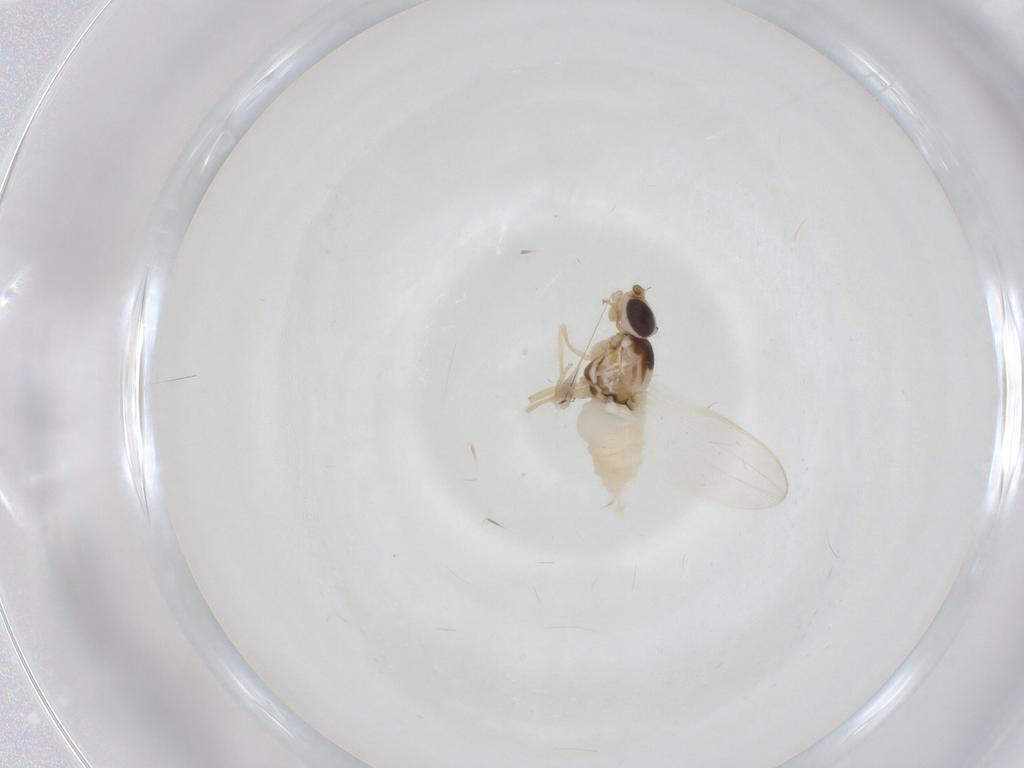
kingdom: Animalia
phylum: Arthropoda
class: Insecta
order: Diptera
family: Chloropidae
